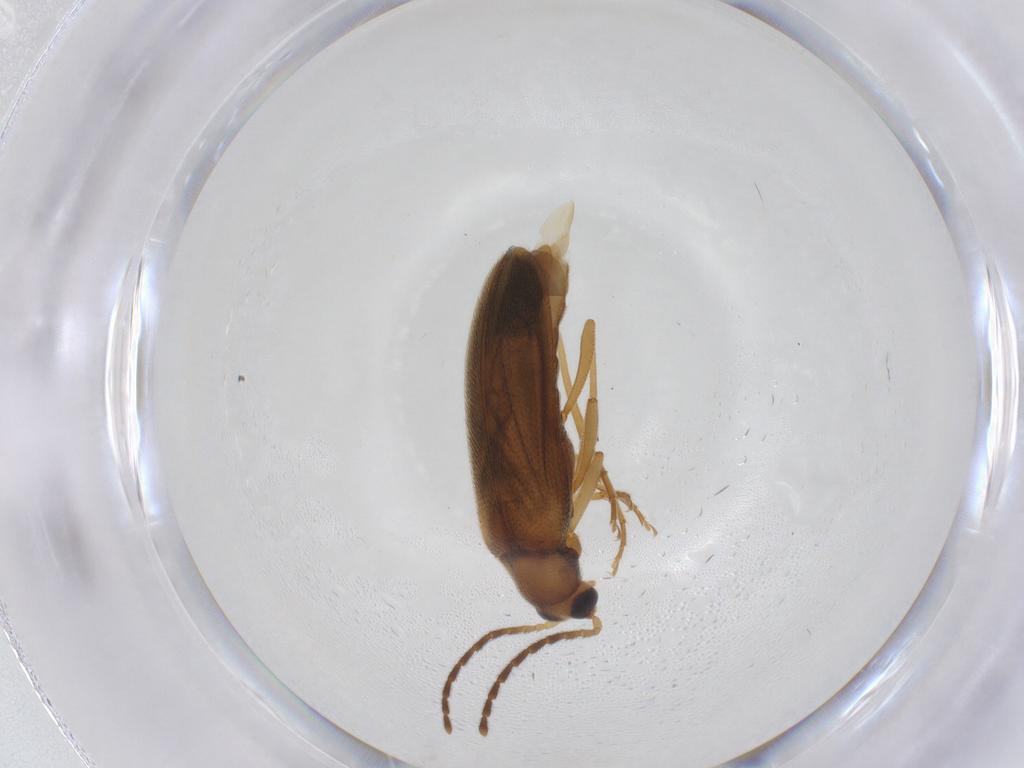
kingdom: Animalia
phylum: Arthropoda
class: Insecta
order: Coleoptera
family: Melandryidae
